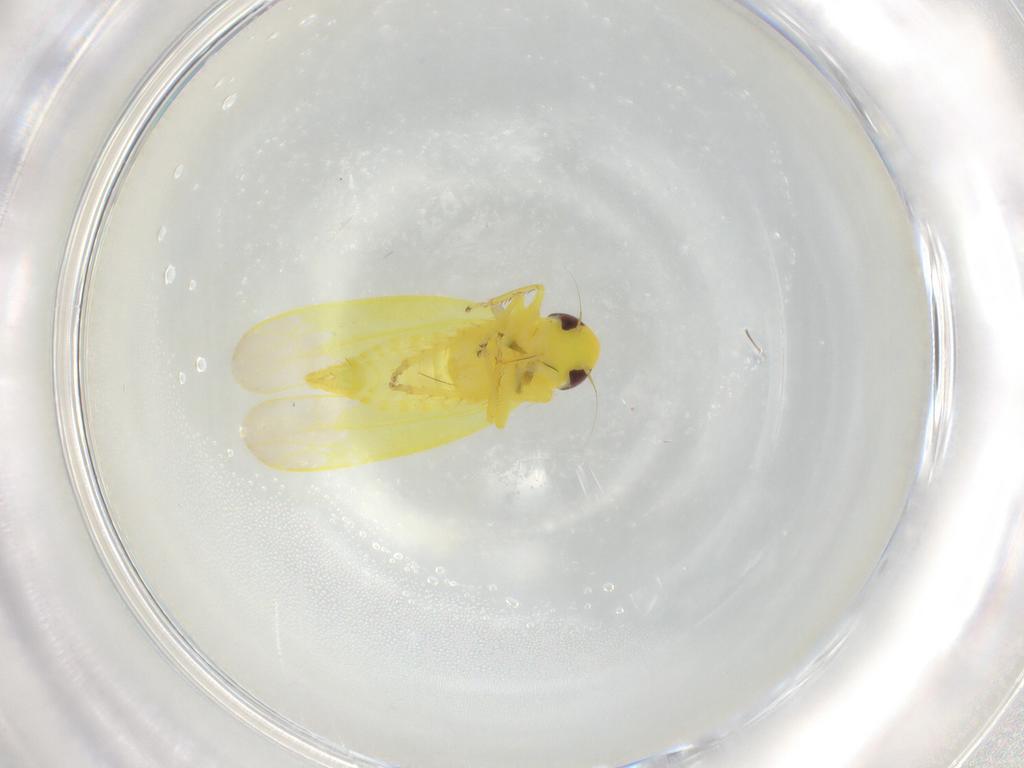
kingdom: Animalia
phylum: Arthropoda
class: Insecta
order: Hemiptera
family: Cicadellidae
